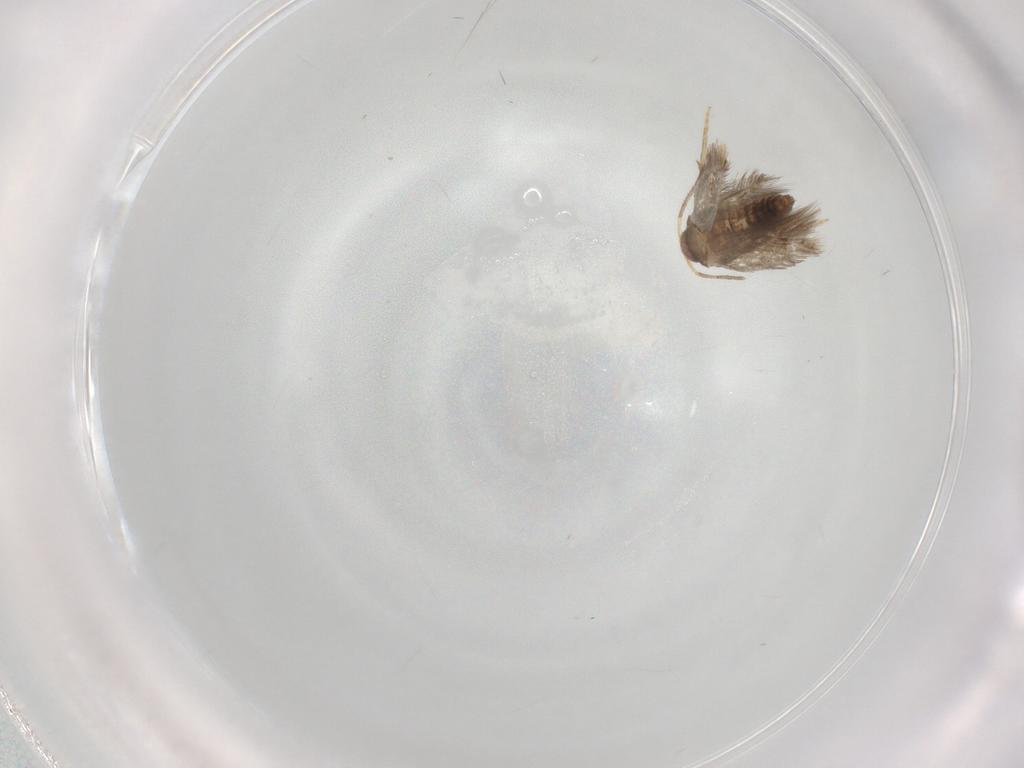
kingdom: Animalia
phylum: Arthropoda
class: Insecta
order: Lepidoptera
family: Nepticulidae
